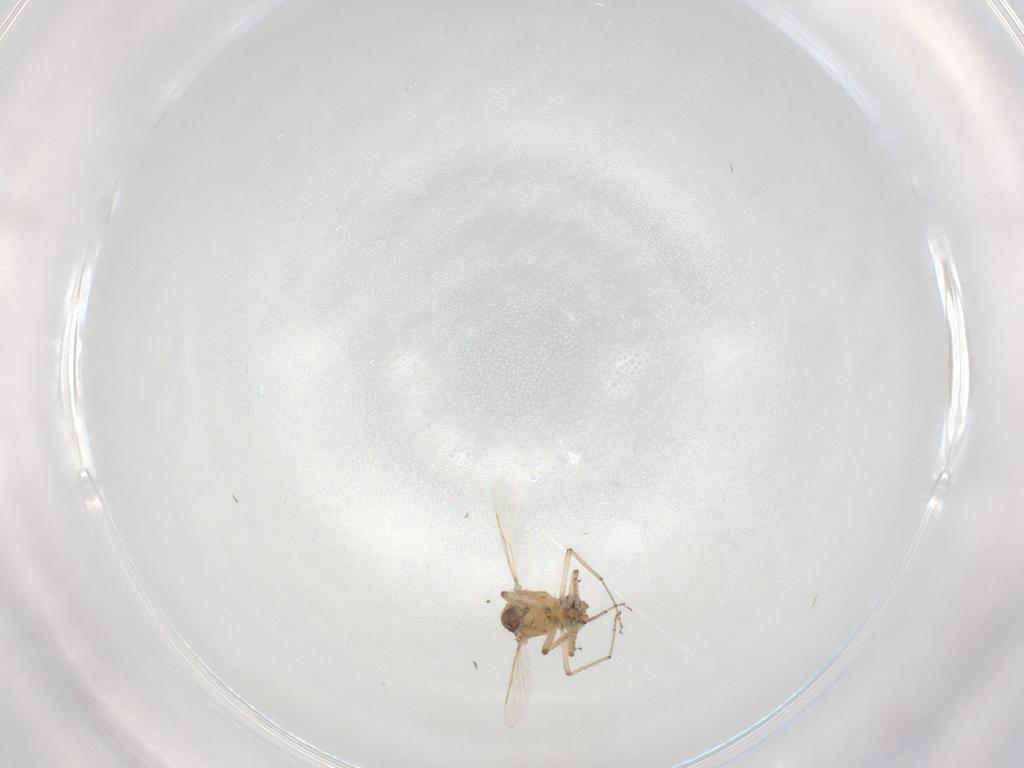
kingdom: Animalia
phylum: Arthropoda
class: Insecta
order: Diptera
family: Ceratopogonidae
